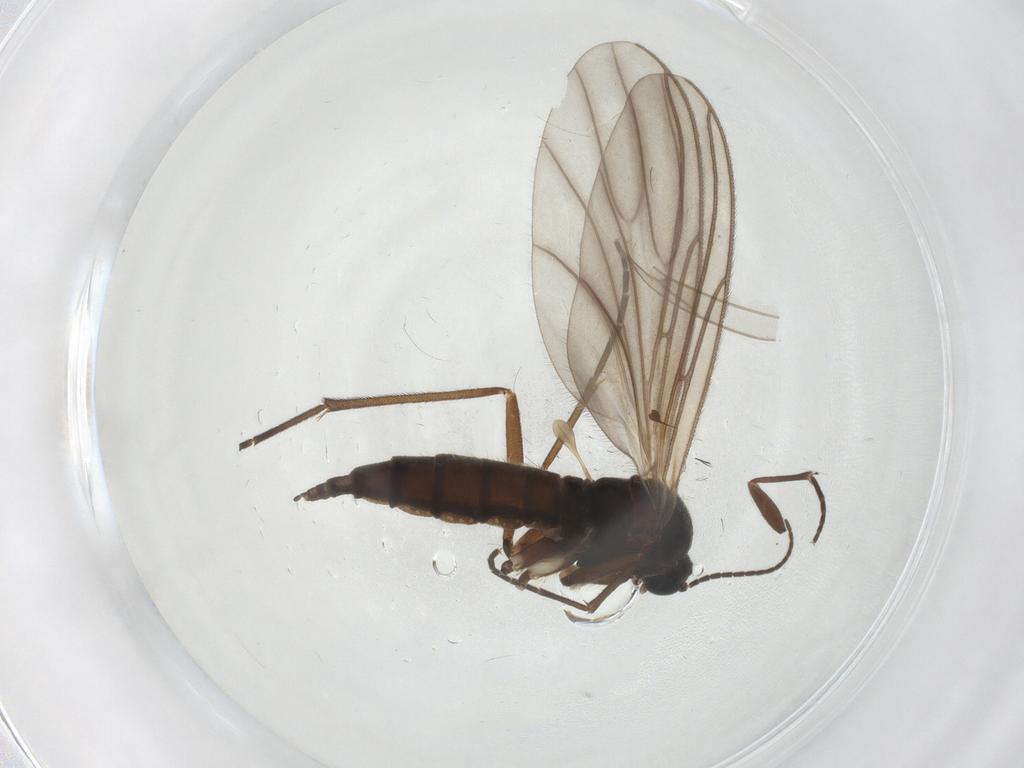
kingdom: Animalia
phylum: Arthropoda
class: Insecta
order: Diptera
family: Sciaridae
